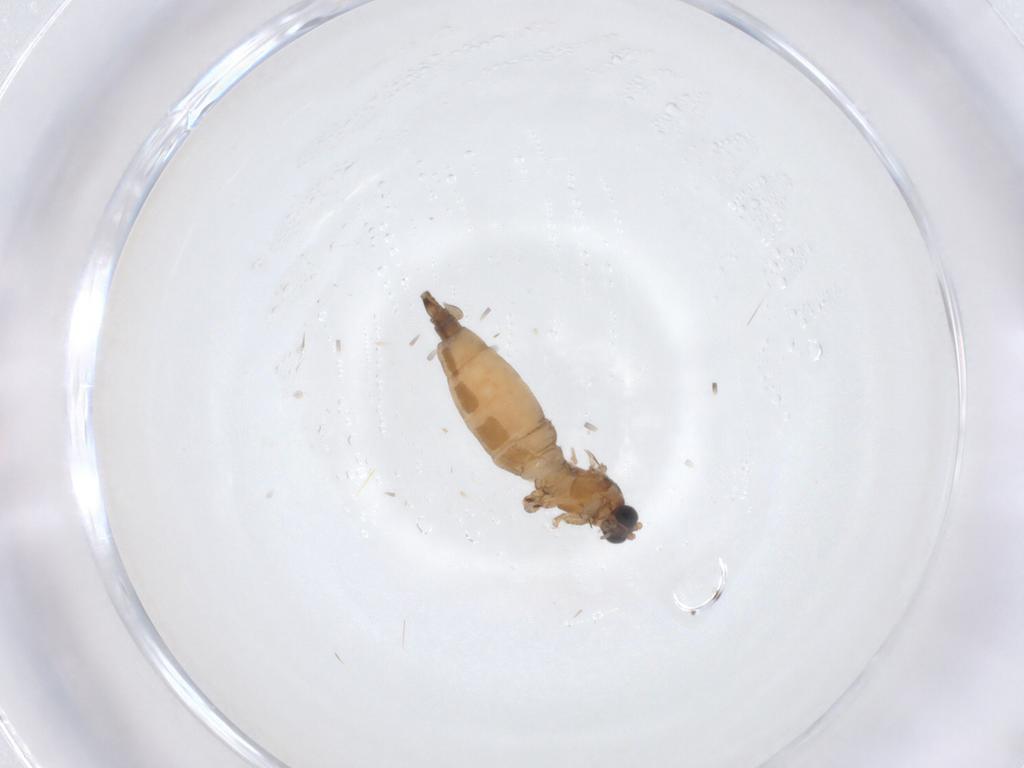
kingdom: Animalia
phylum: Arthropoda
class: Insecta
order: Diptera
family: Sciaridae
